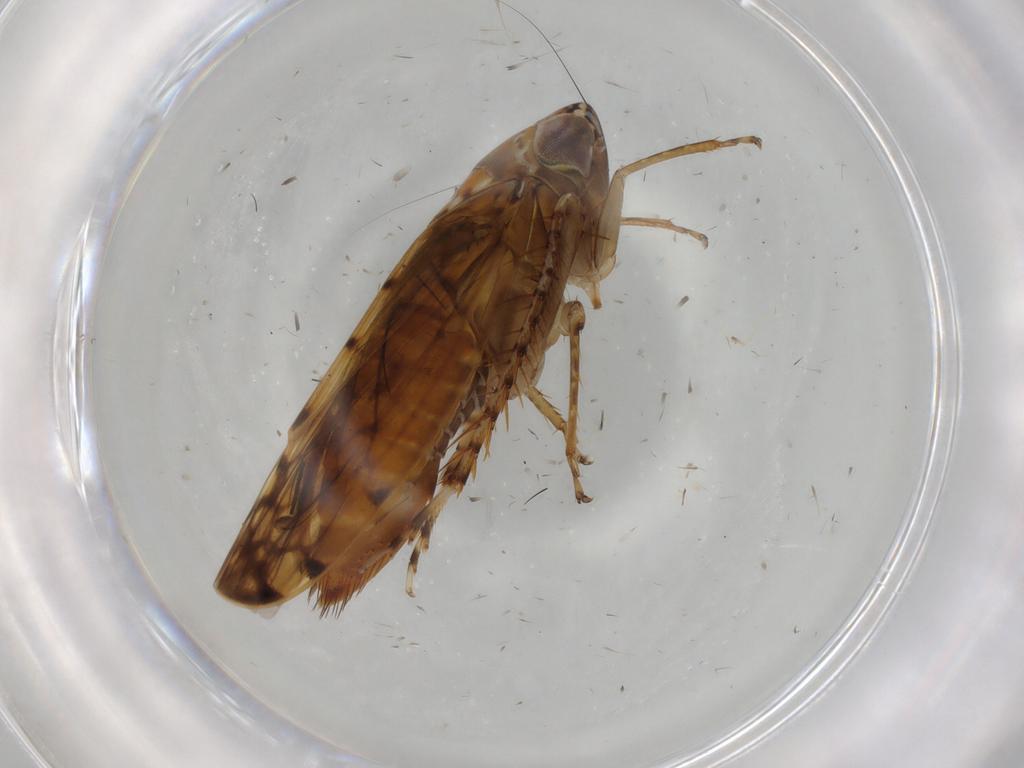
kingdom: Animalia
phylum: Arthropoda
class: Insecta
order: Hemiptera
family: Cicadellidae
